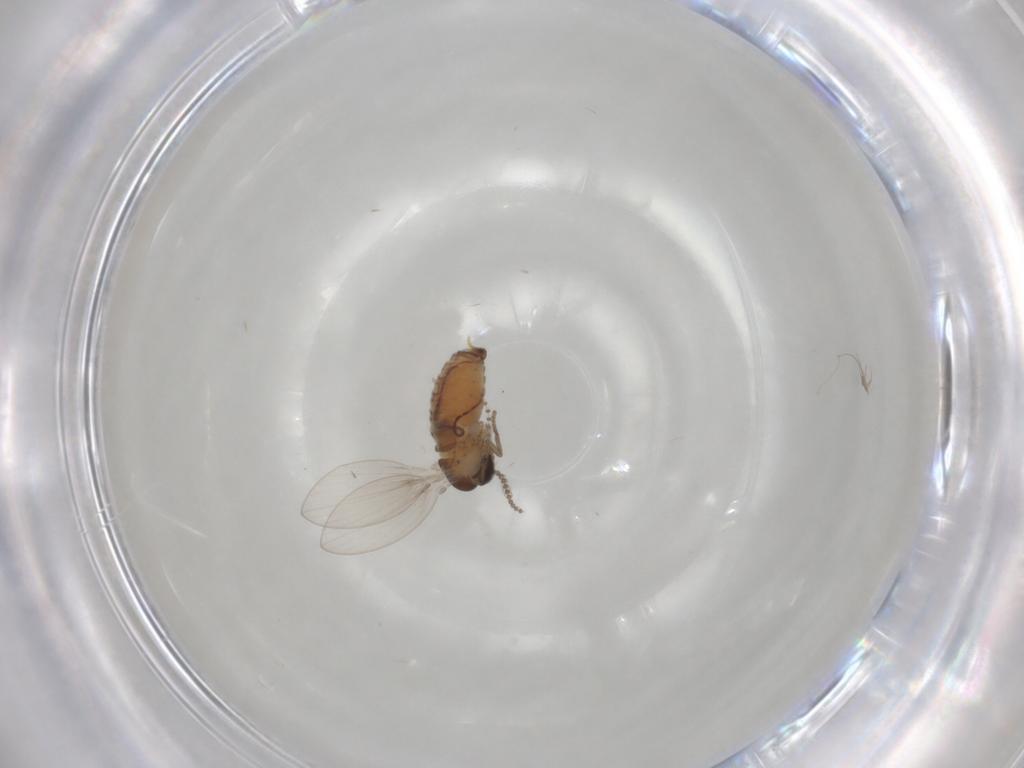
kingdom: Animalia
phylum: Arthropoda
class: Insecta
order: Diptera
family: Psychodidae
